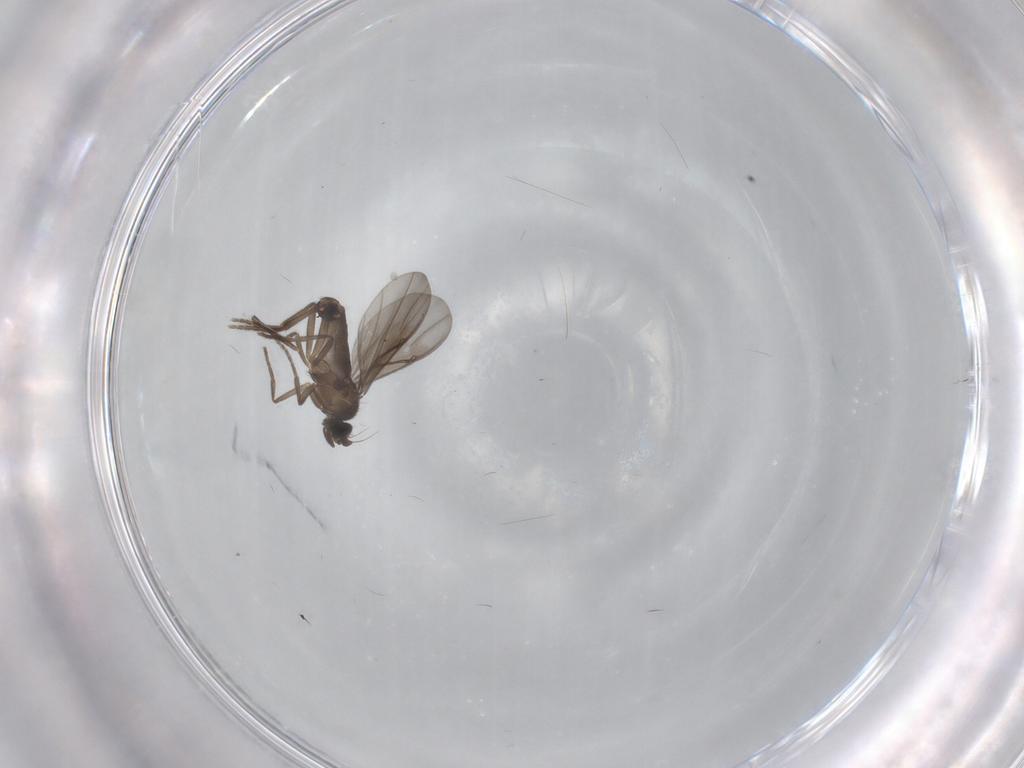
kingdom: Animalia
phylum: Arthropoda
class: Insecta
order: Diptera
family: Phoridae
